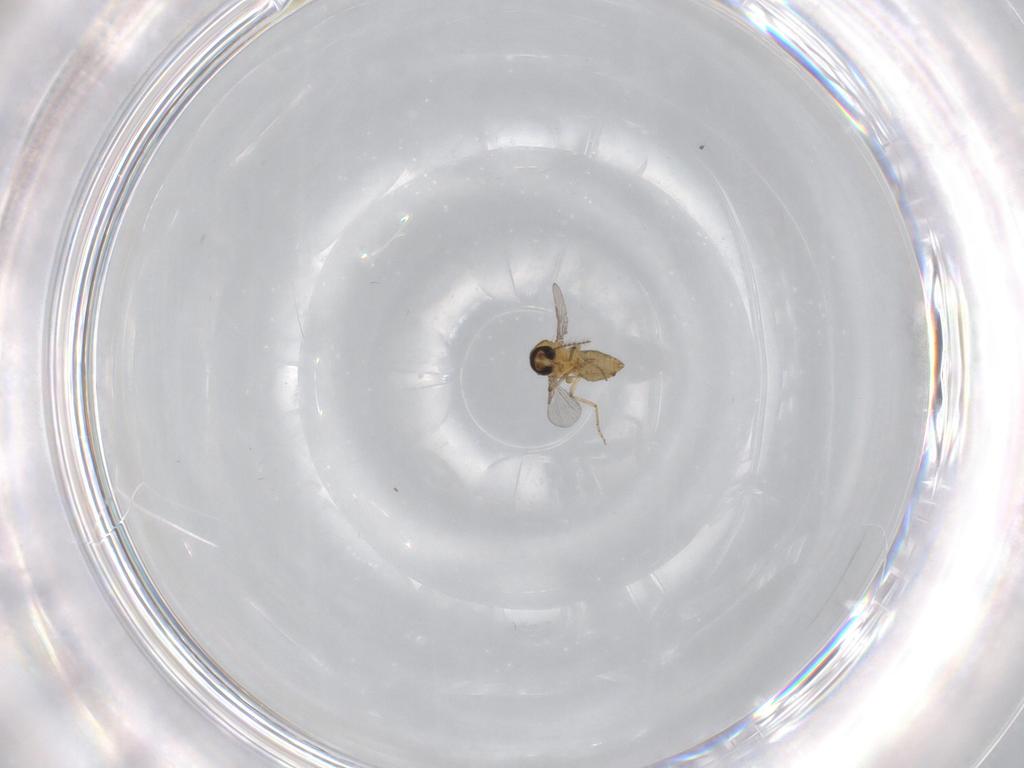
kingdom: Animalia
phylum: Arthropoda
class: Insecta
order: Diptera
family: Ceratopogonidae
